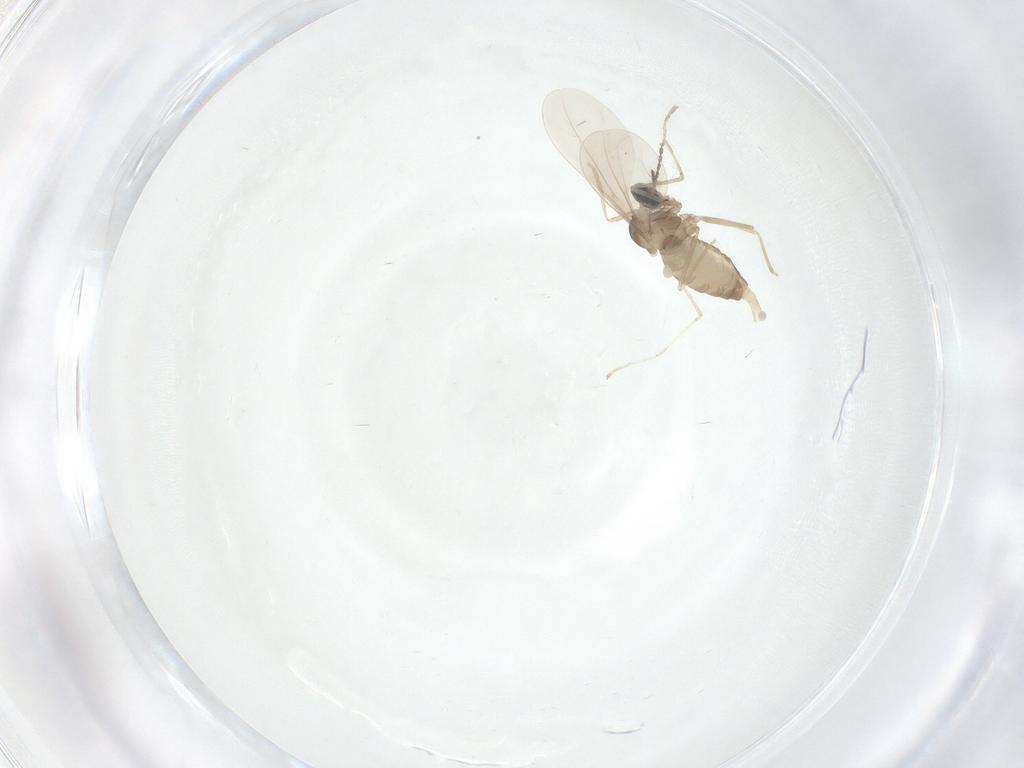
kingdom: Animalia
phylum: Arthropoda
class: Insecta
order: Diptera
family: Cecidomyiidae
